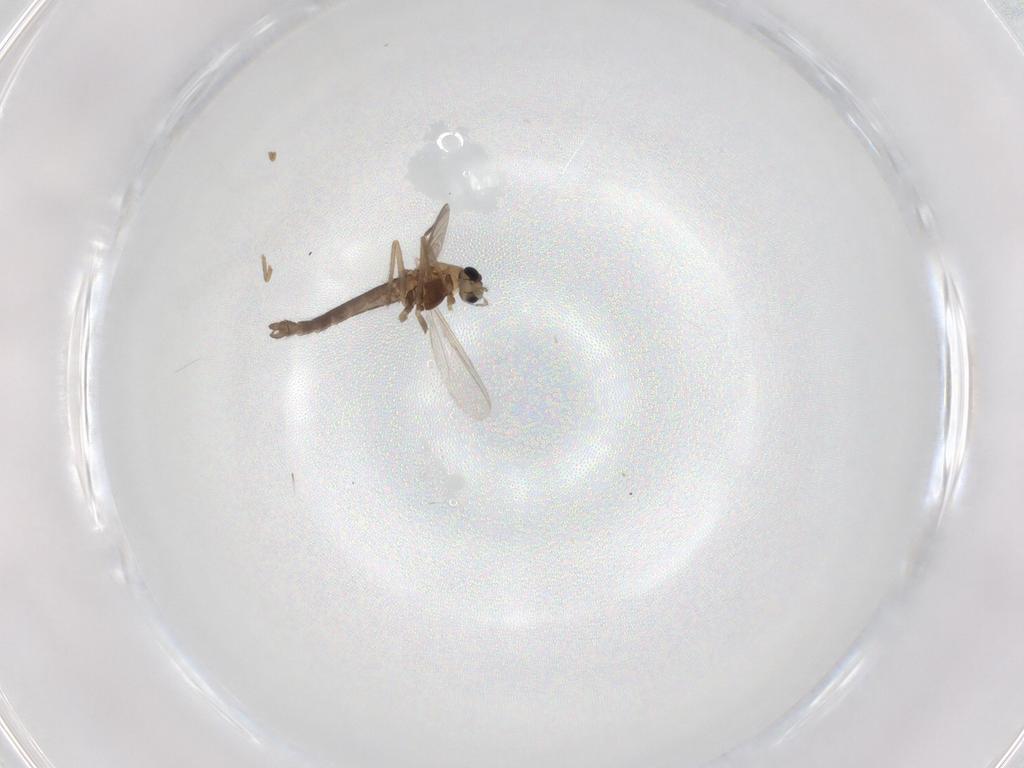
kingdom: Animalia
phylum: Arthropoda
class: Insecta
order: Diptera
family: Chironomidae
